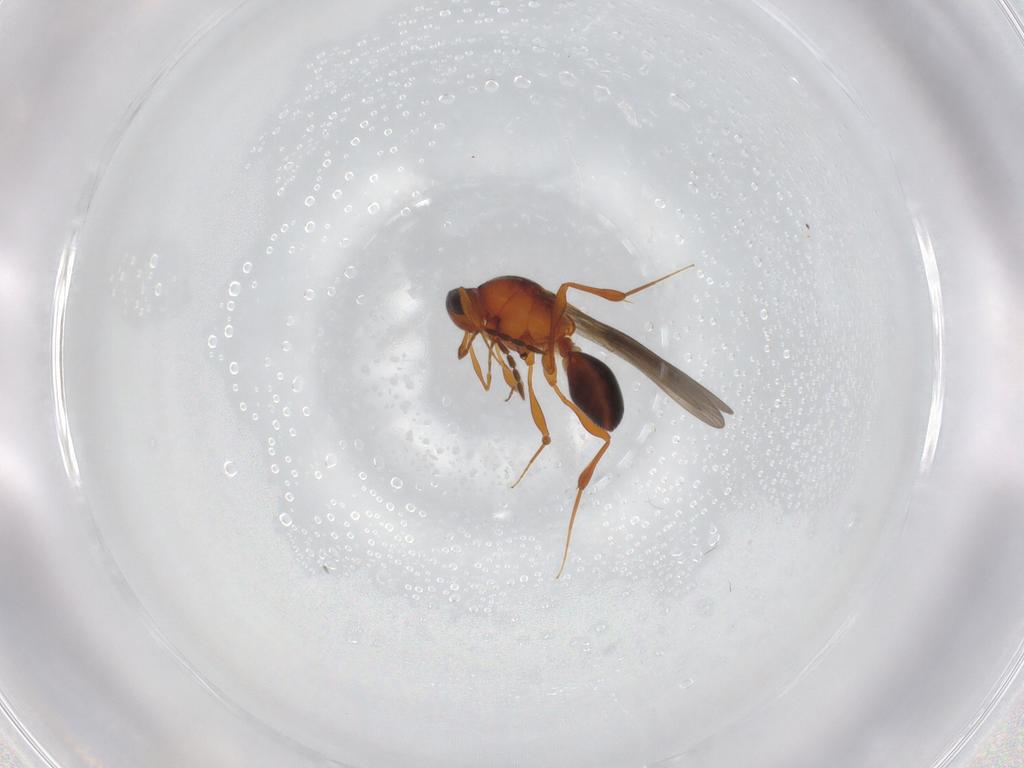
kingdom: Animalia
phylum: Arthropoda
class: Insecta
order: Hymenoptera
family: Platygastridae
